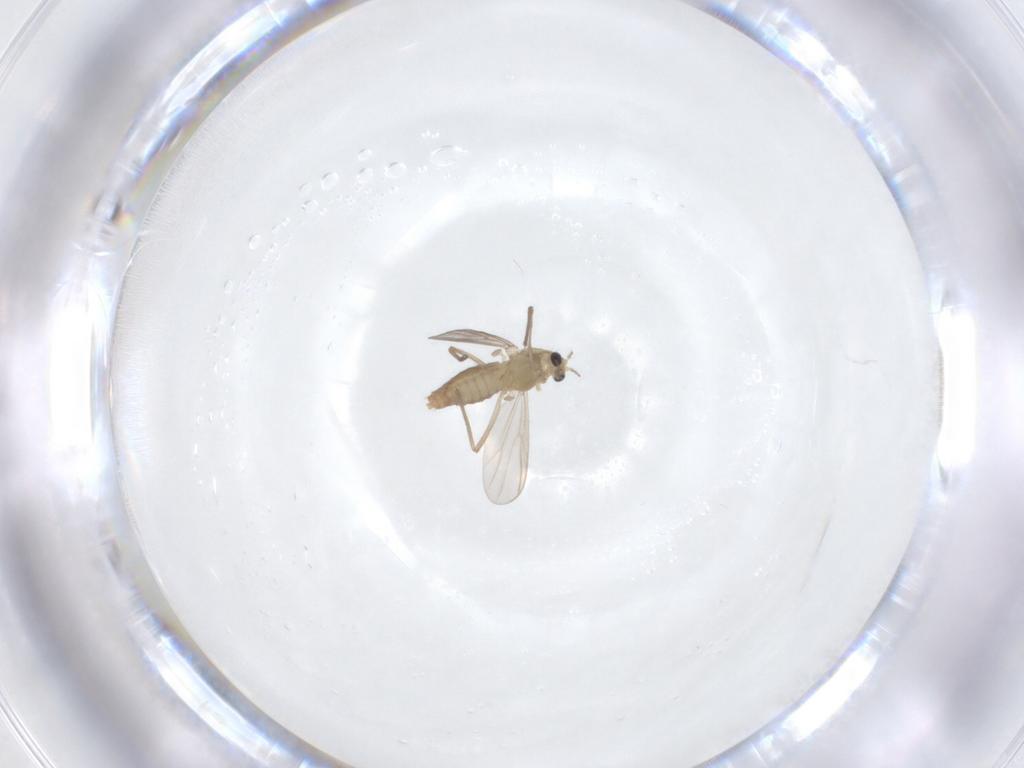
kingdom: Animalia
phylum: Arthropoda
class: Insecta
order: Diptera
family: Chironomidae
